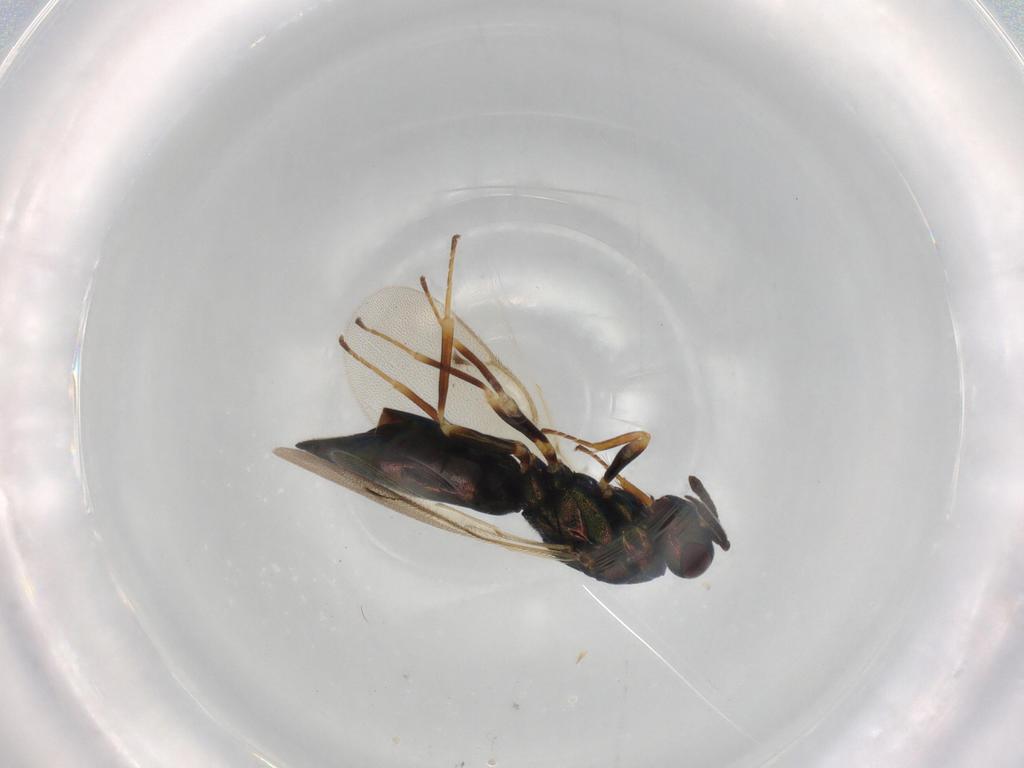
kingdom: Animalia
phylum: Arthropoda
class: Insecta
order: Hymenoptera
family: Pteromalidae
